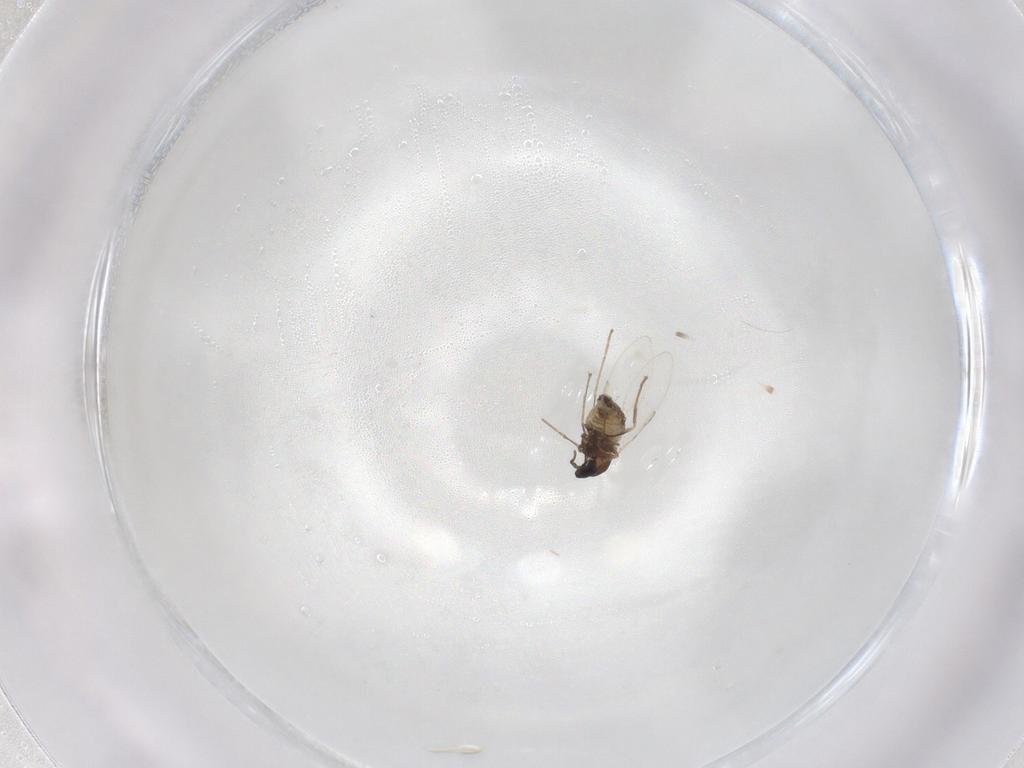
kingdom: Animalia
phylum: Arthropoda
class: Insecta
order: Diptera
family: Cecidomyiidae
